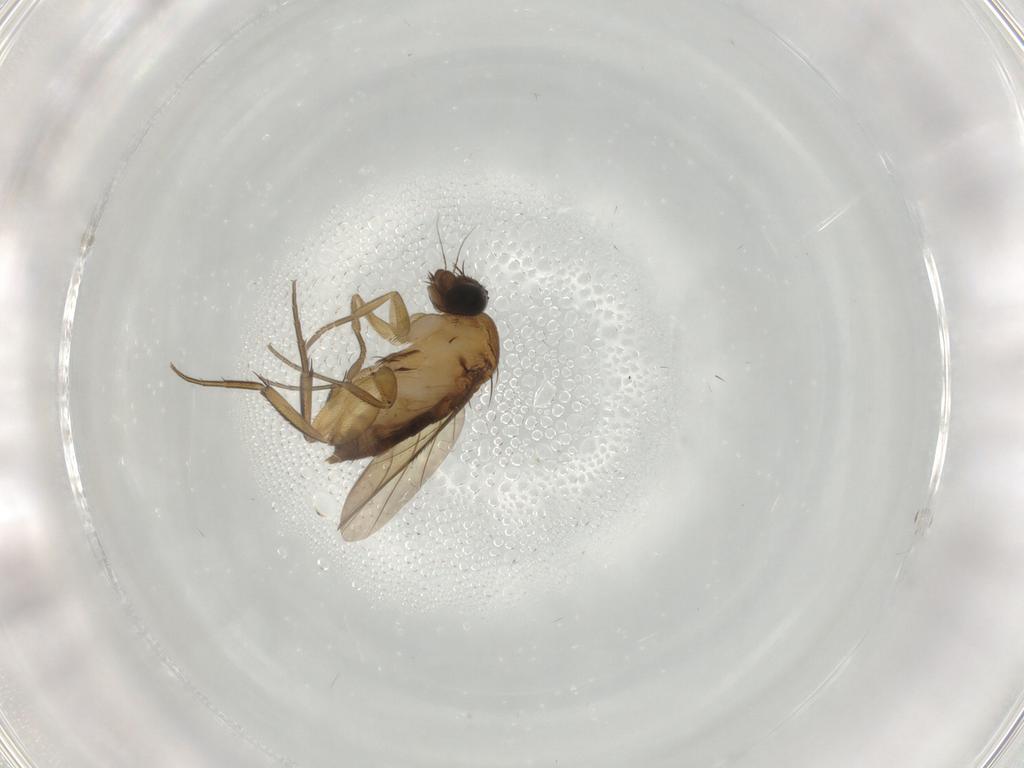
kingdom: Animalia
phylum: Arthropoda
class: Insecta
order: Diptera
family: Phoridae
